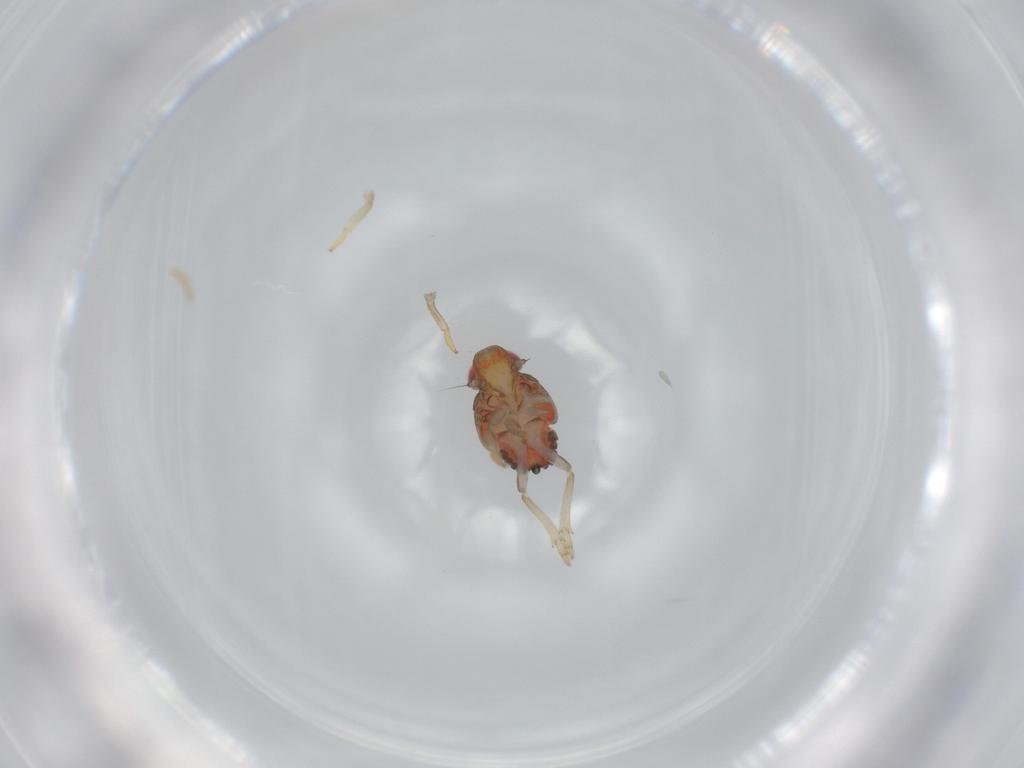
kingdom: Animalia
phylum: Arthropoda
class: Insecta
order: Hemiptera
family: Issidae
